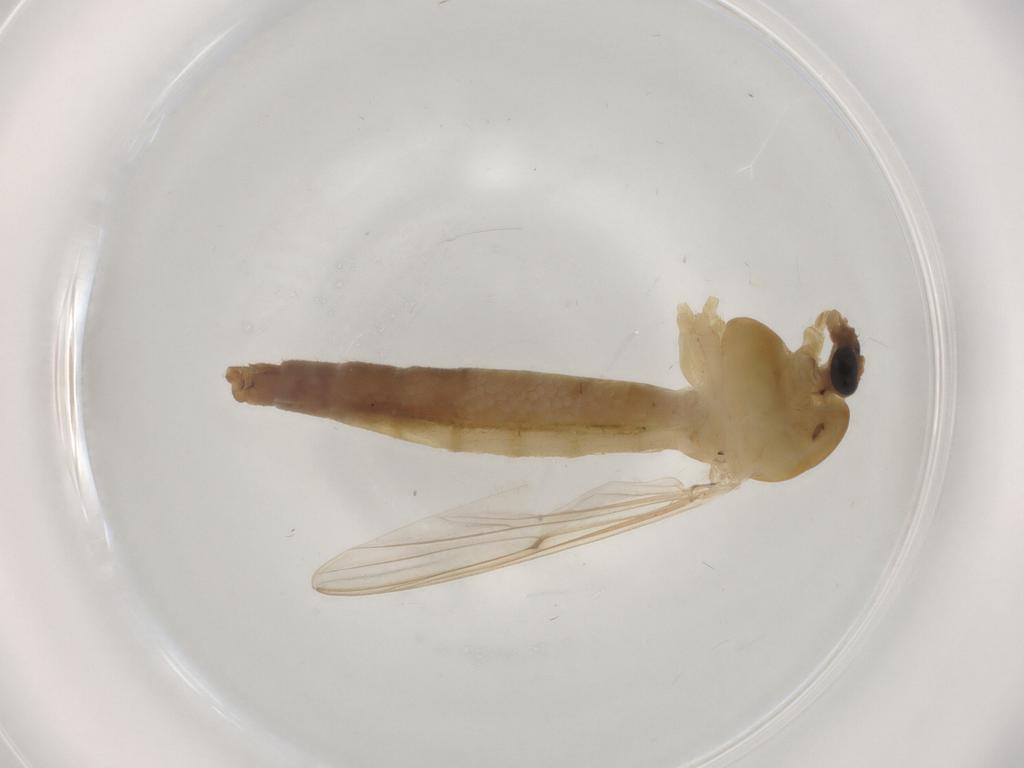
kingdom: Animalia
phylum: Arthropoda
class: Insecta
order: Diptera
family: Cecidomyiidae
